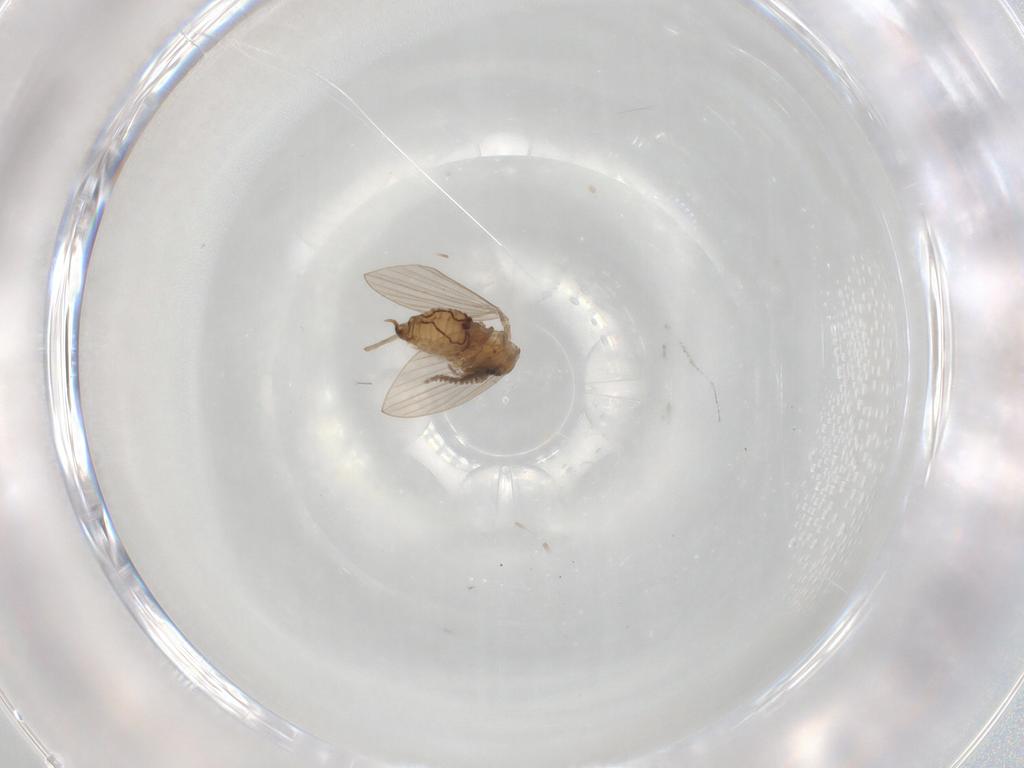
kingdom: Animalia
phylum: Arthropoda
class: Insecta
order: Diptera
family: Psychodidae
